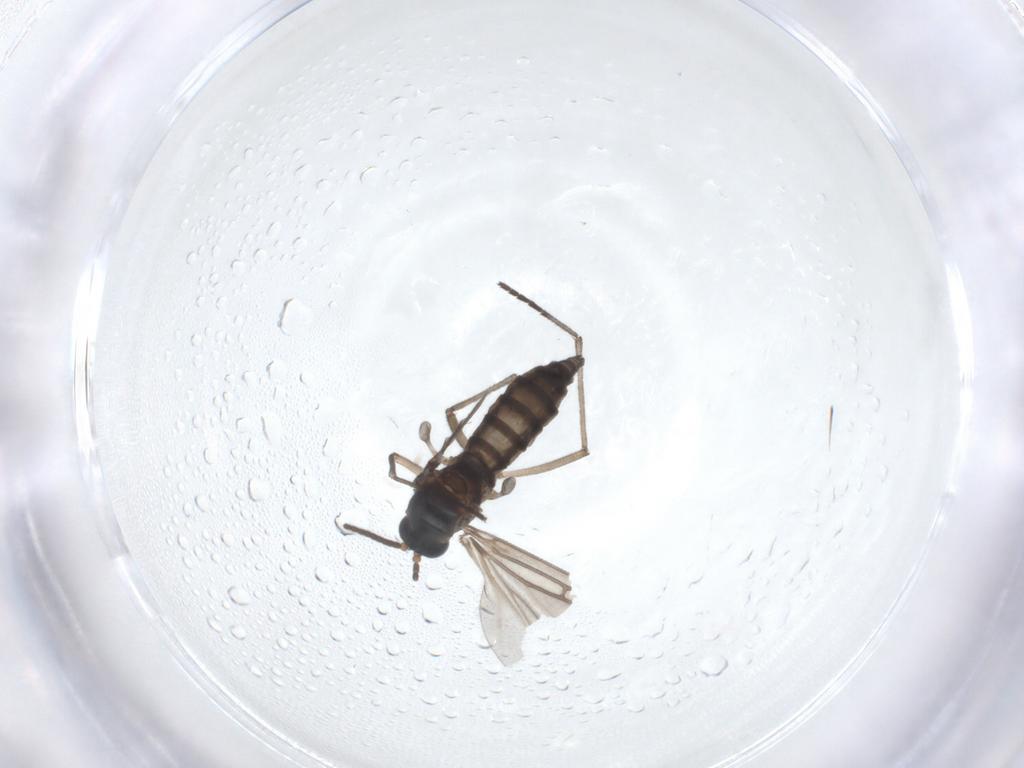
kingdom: Animalia
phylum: Arthropoda
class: Insecta
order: Diptera
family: Sciaridae
